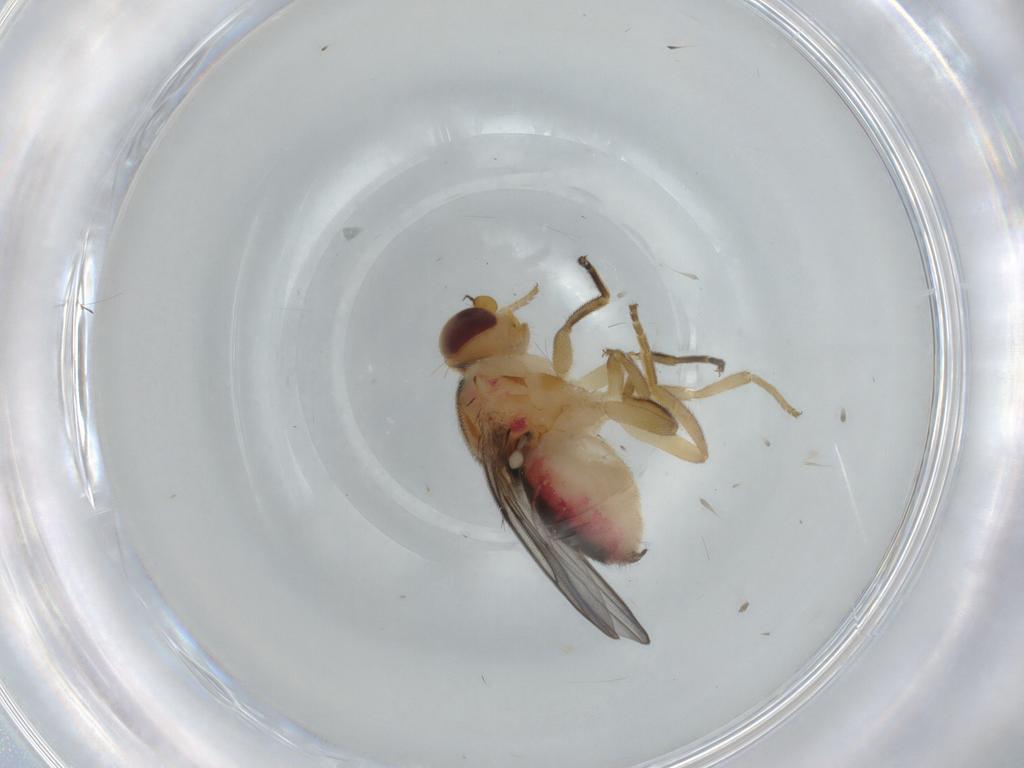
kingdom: Animalia
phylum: Arthropoda
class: Insecta
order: Diptera
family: Chloropidae
